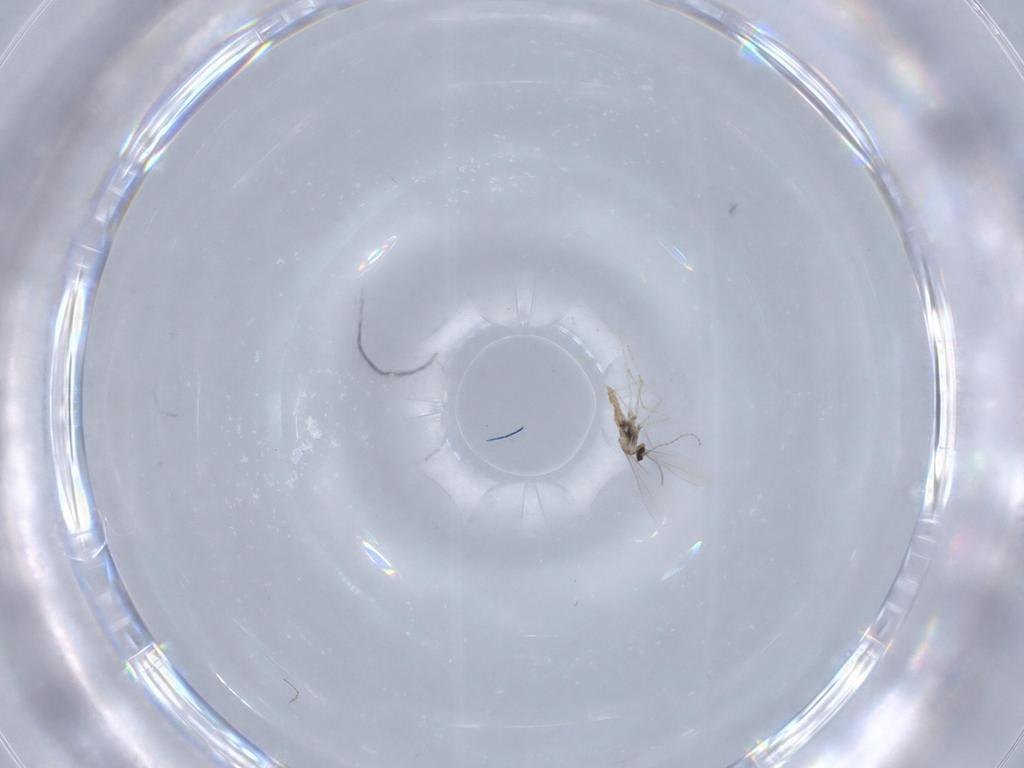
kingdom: Animalia
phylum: Arthropoda
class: Insecta
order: Diptera
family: Cecidomyiidae
